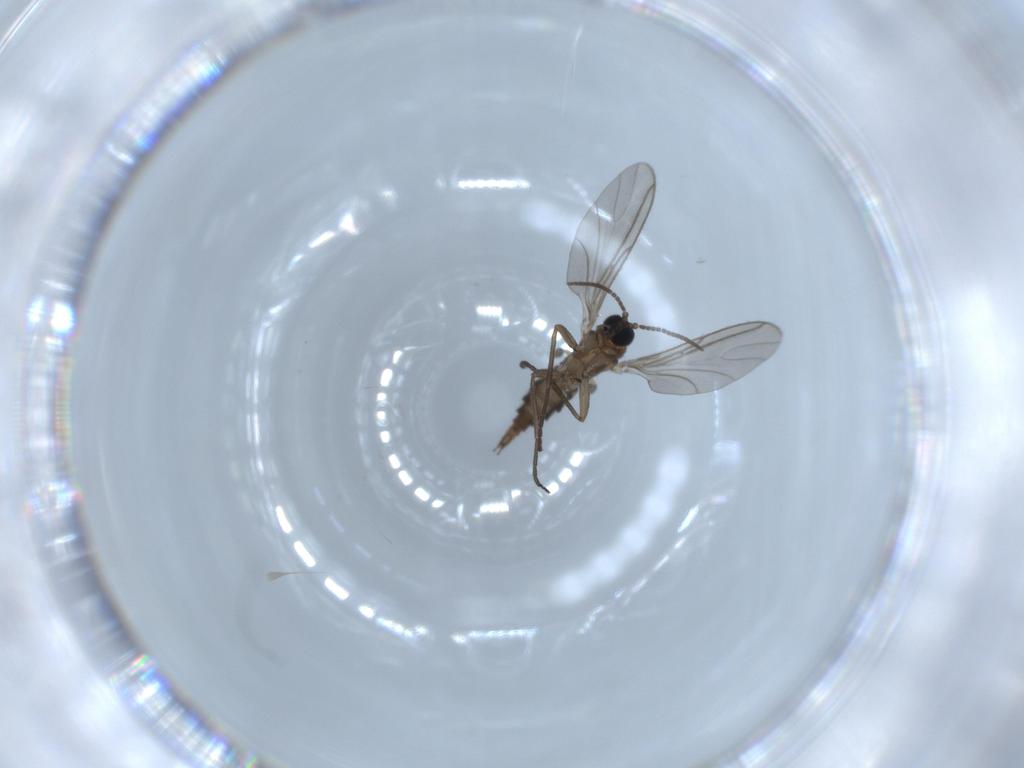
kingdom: Animalia
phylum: Arthropoda
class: Insecta
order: Diptera
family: Sciaridae
